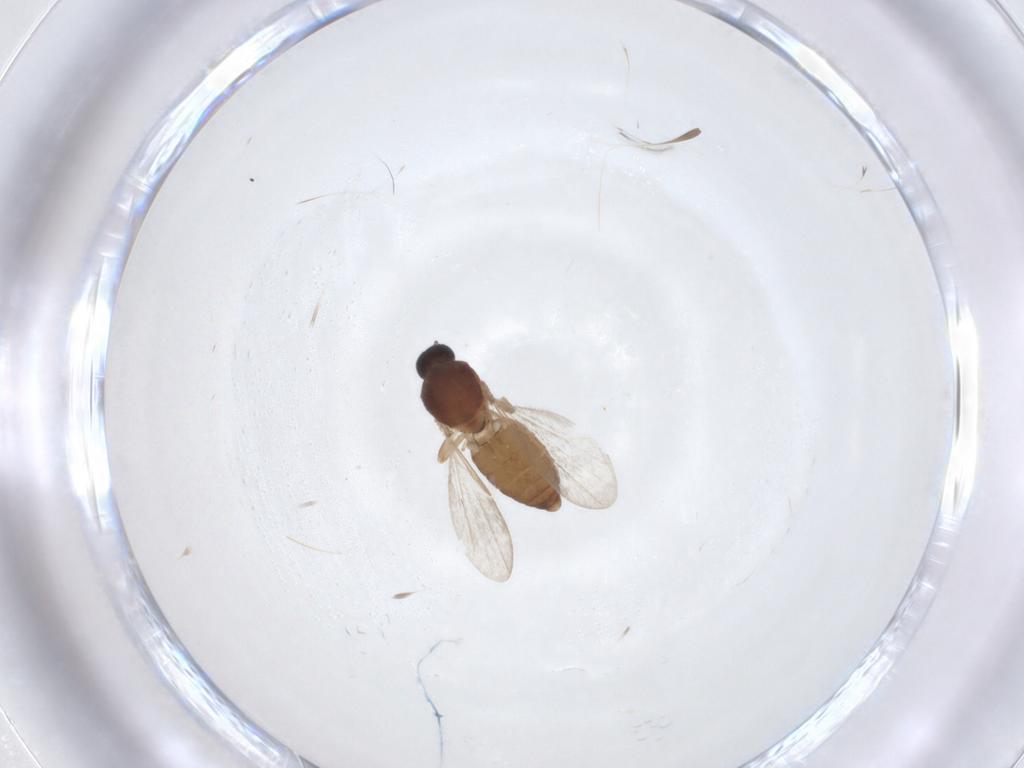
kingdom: Animalia
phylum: Arthropoda
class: Insecta
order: Diptera
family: Ceratopogonidae
